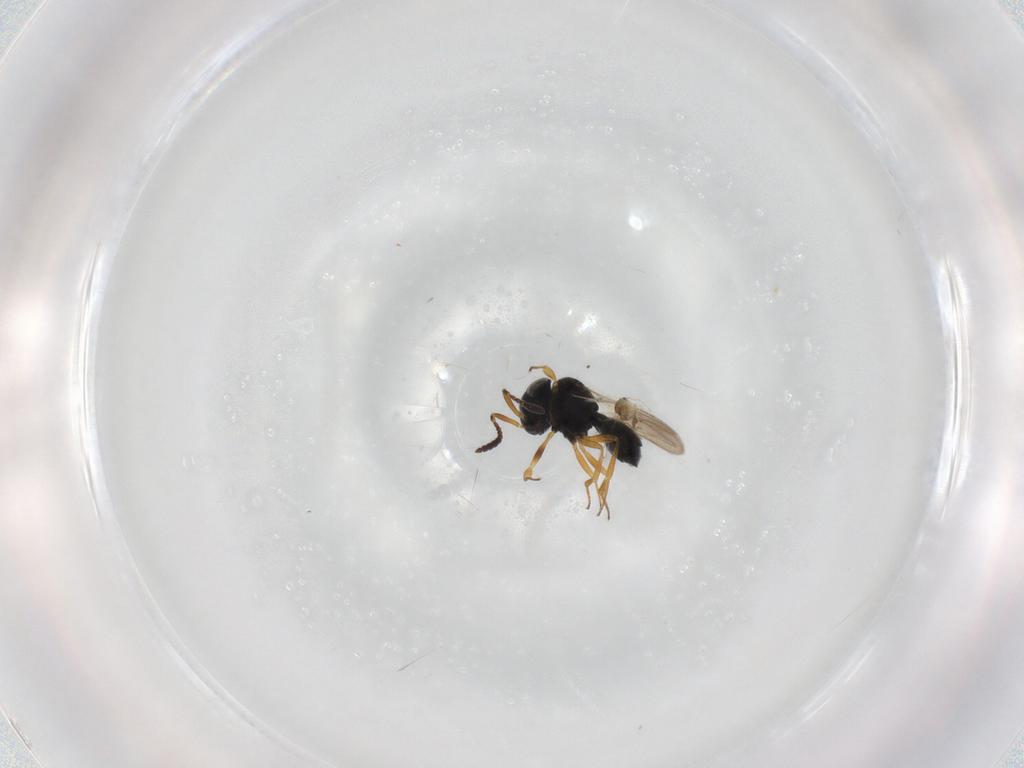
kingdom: Animalia
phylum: Arthropoda
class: Insecta
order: Hymenoptera
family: Scelionidae
